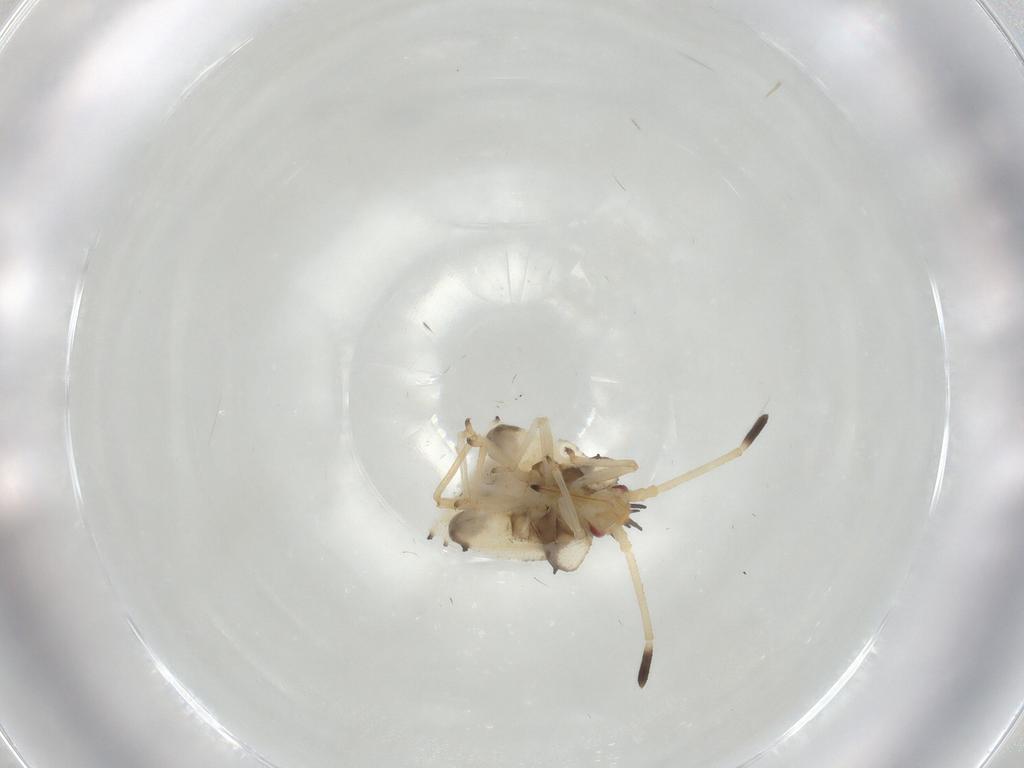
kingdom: Animalia
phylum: Arthropoda
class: Insecta
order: Hemiptera
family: Tingidae
